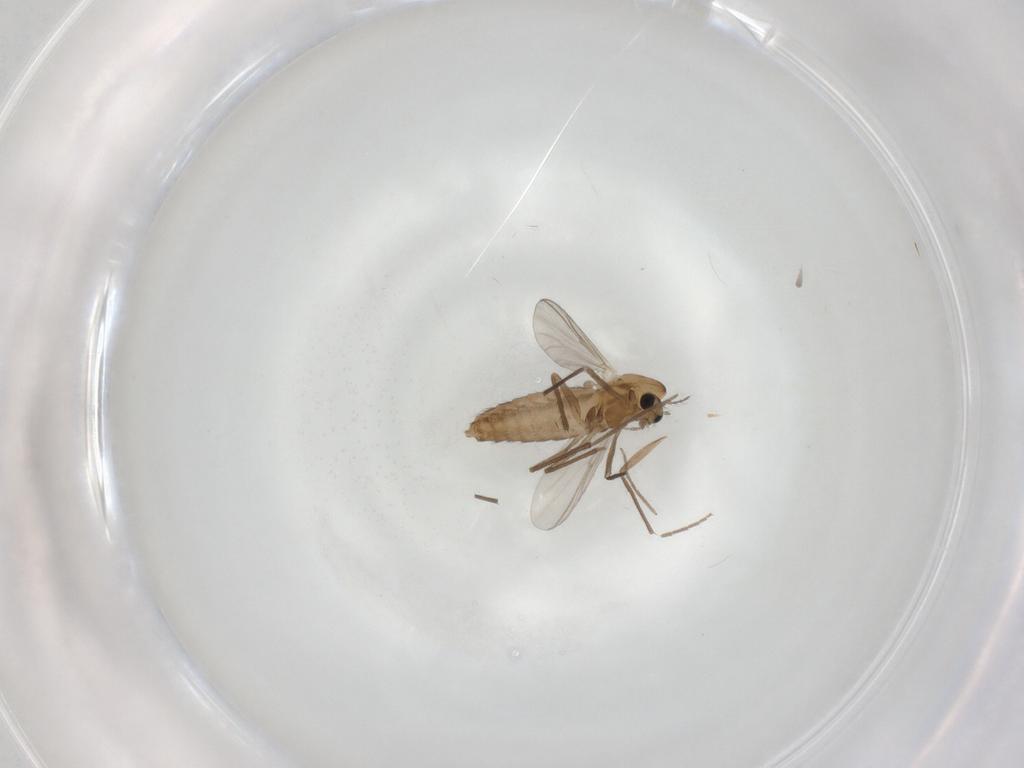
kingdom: Animalia
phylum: Arthropoda
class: Insecta
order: Diptera
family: Chironomidae
